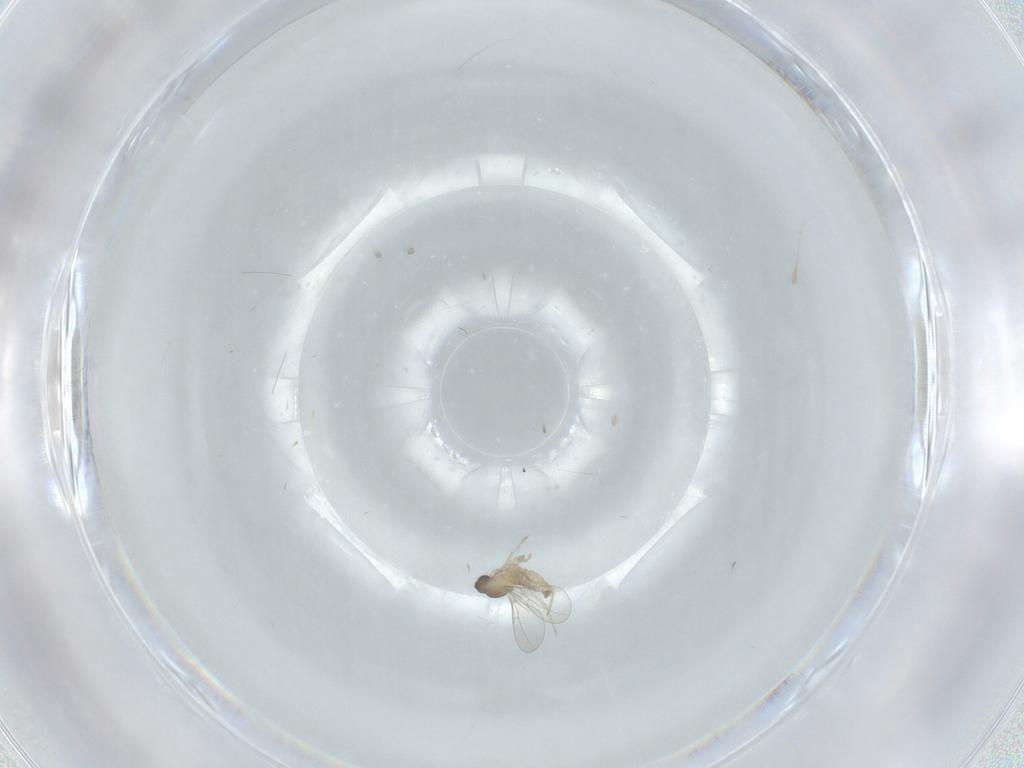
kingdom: Animalia
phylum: Arthropoda
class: Insecta
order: Diptera
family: Cecidomyiidae
